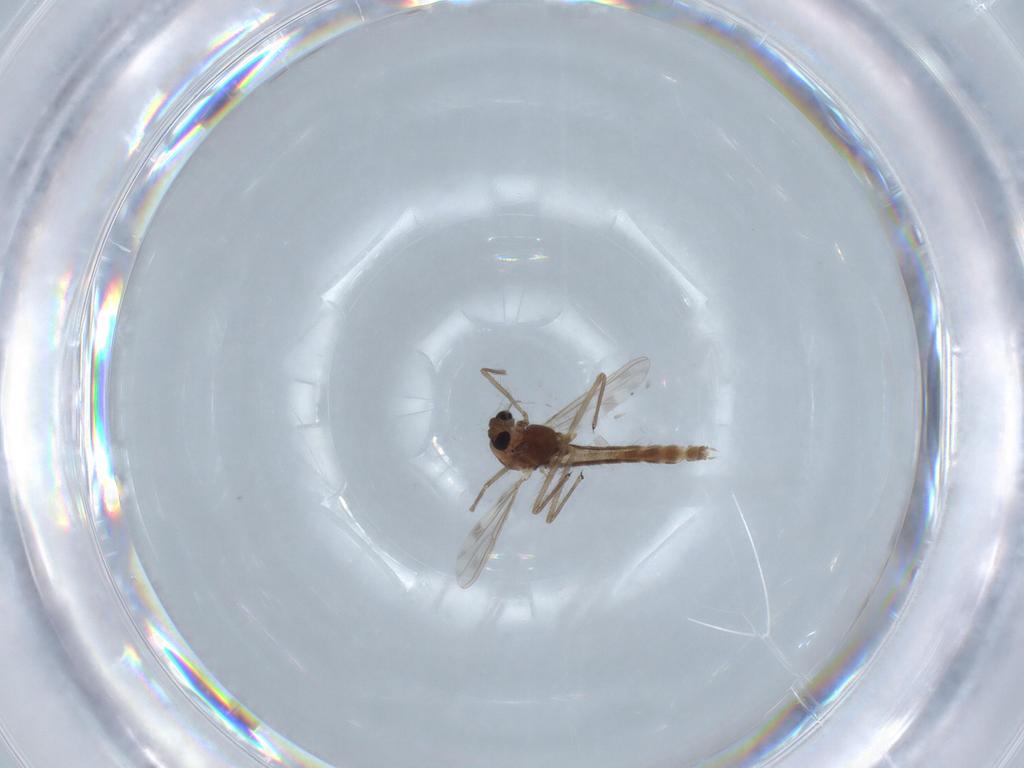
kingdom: Animalia
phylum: Arthropoda
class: Insecta
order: Diptera
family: Chironomidae
